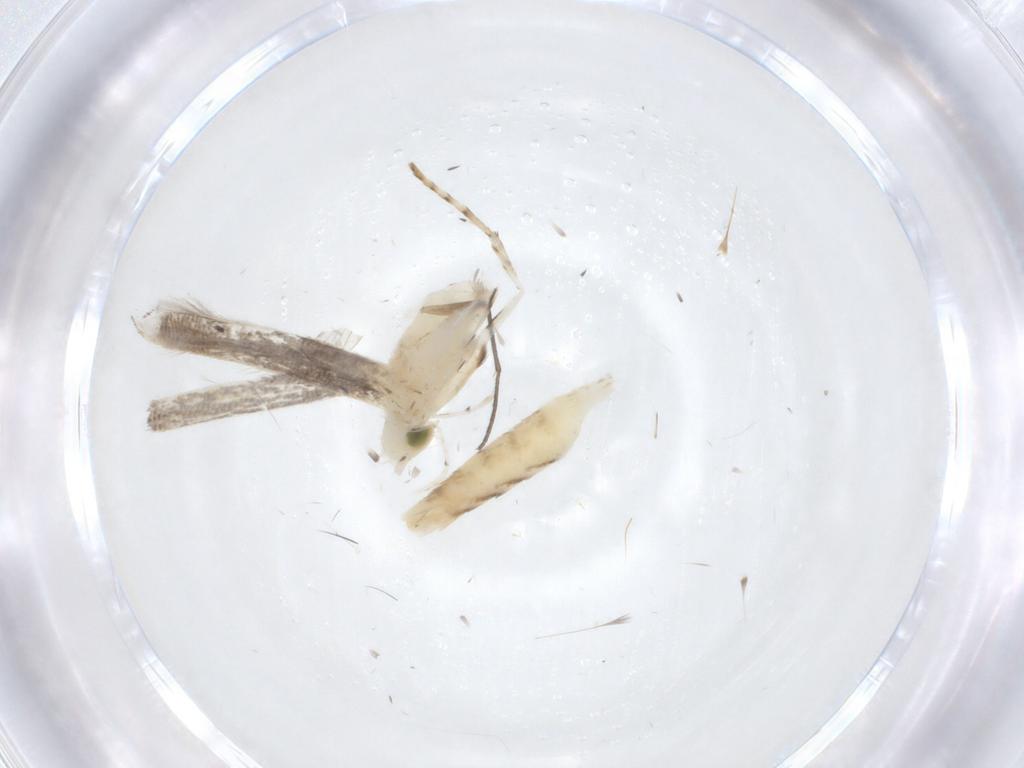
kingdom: Animalia
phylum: Arthropoda
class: Insecta
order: Lepidoptera
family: Gracillariidae
